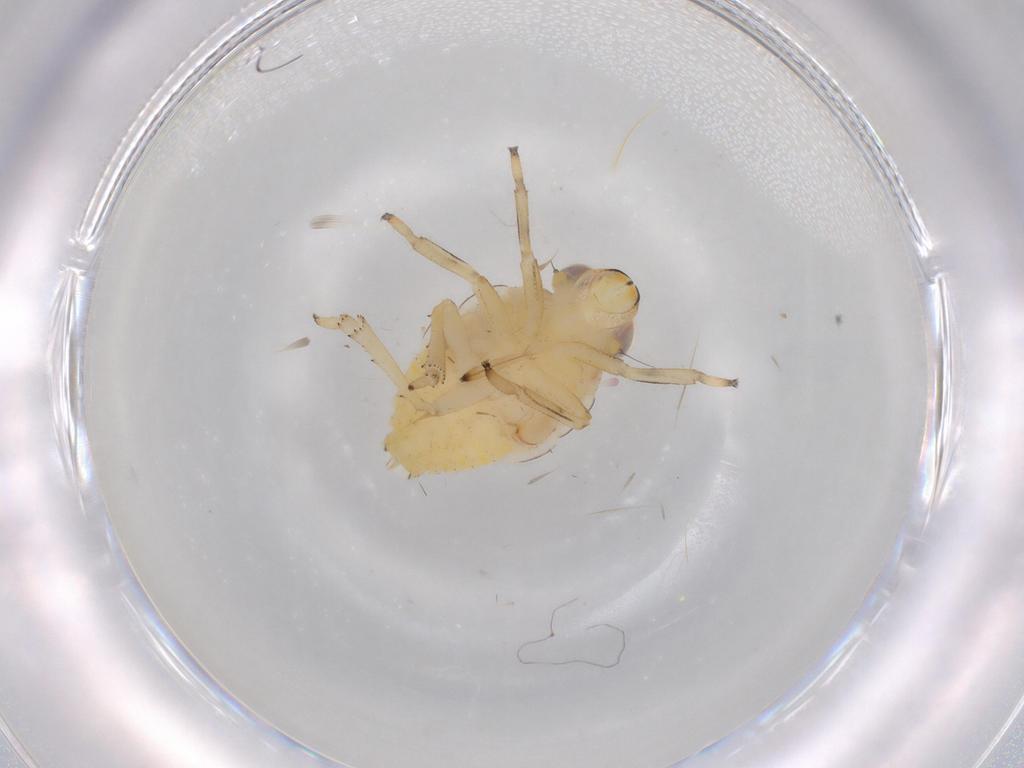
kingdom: Animalia
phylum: Arthropoda
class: Insecta
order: Hemiptera
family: Issidae
